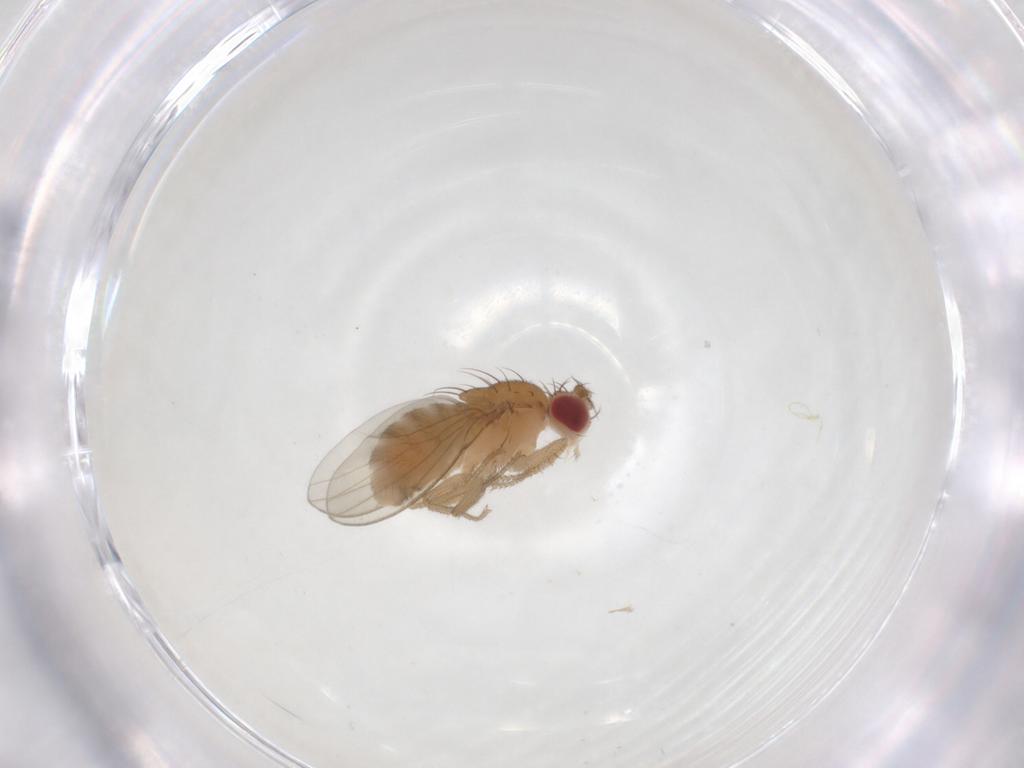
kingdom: Animalia
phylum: Arthropoda
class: Insecta
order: Diptera
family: Drosophilidae
